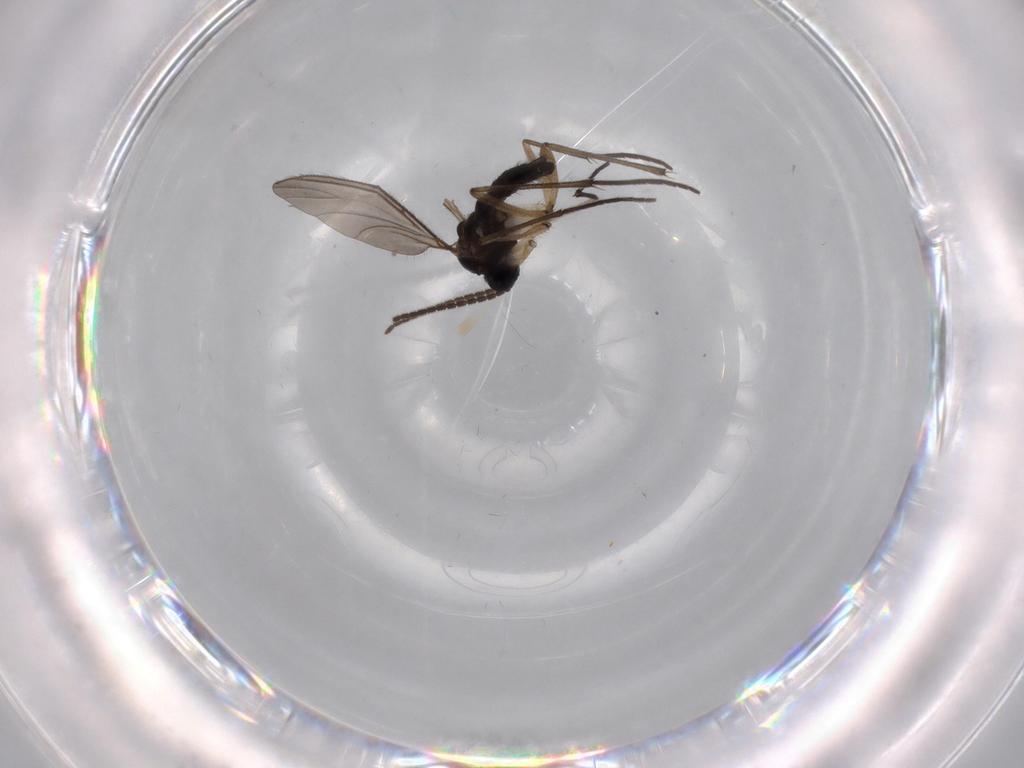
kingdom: Animalia
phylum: Arthropoda
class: Insecta
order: Diptera
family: Sciaridae
